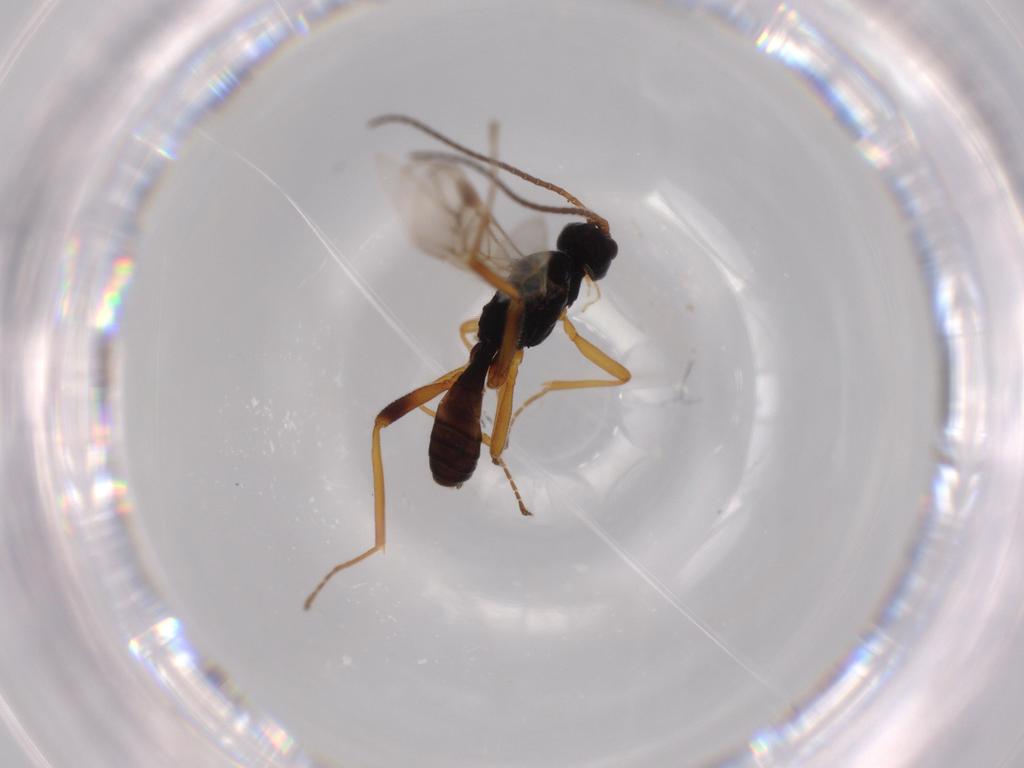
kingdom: Animalia
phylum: Arthropoda
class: Insecta
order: Hymenoptera
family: Braconidae
